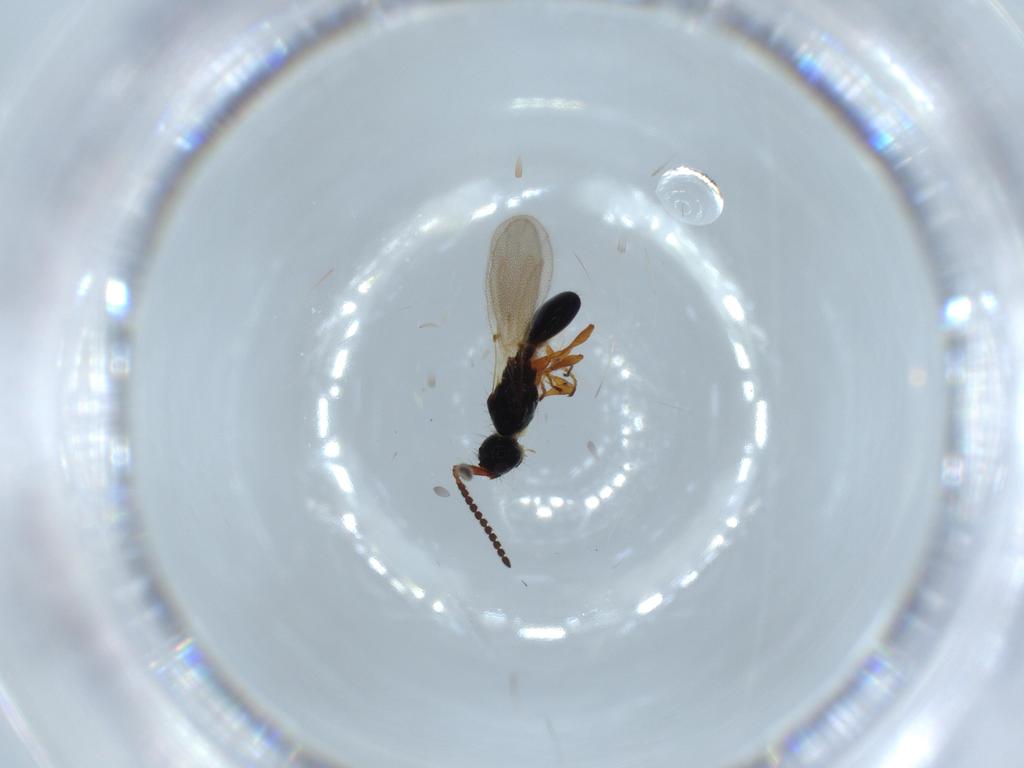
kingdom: Animalia
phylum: Arthropoda
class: Insecta
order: Hymenoptera
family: Diapriidae
